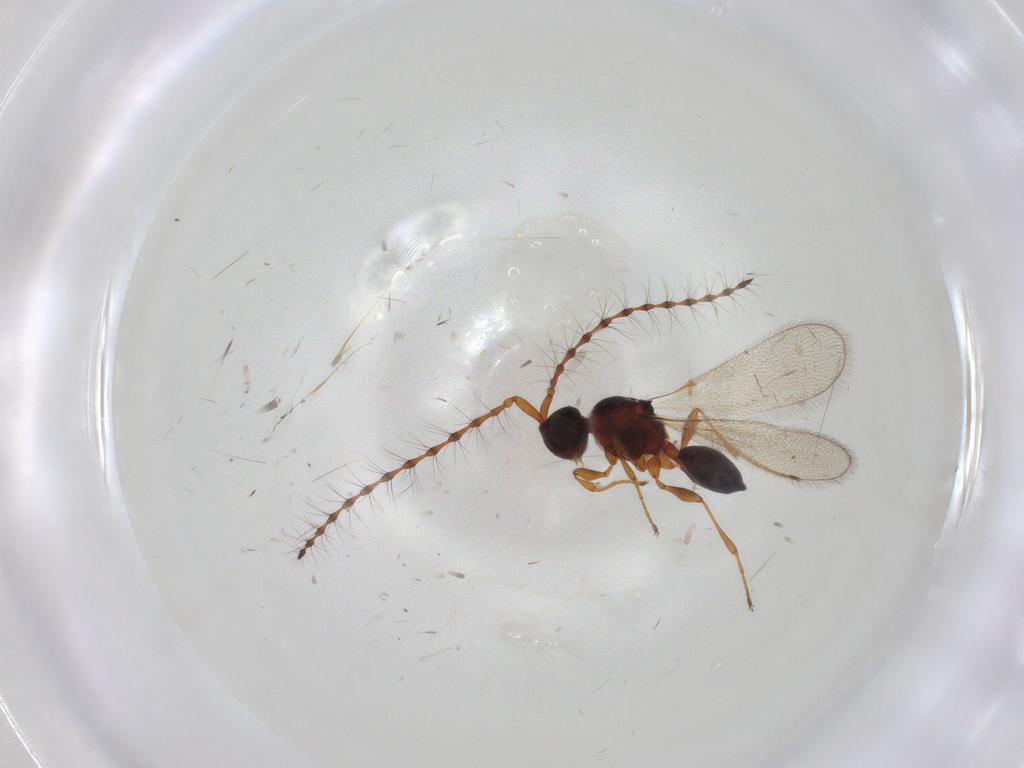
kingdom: Animalia
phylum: Arthropoda
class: Insecta
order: Hymenoptera
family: Diapriidae
